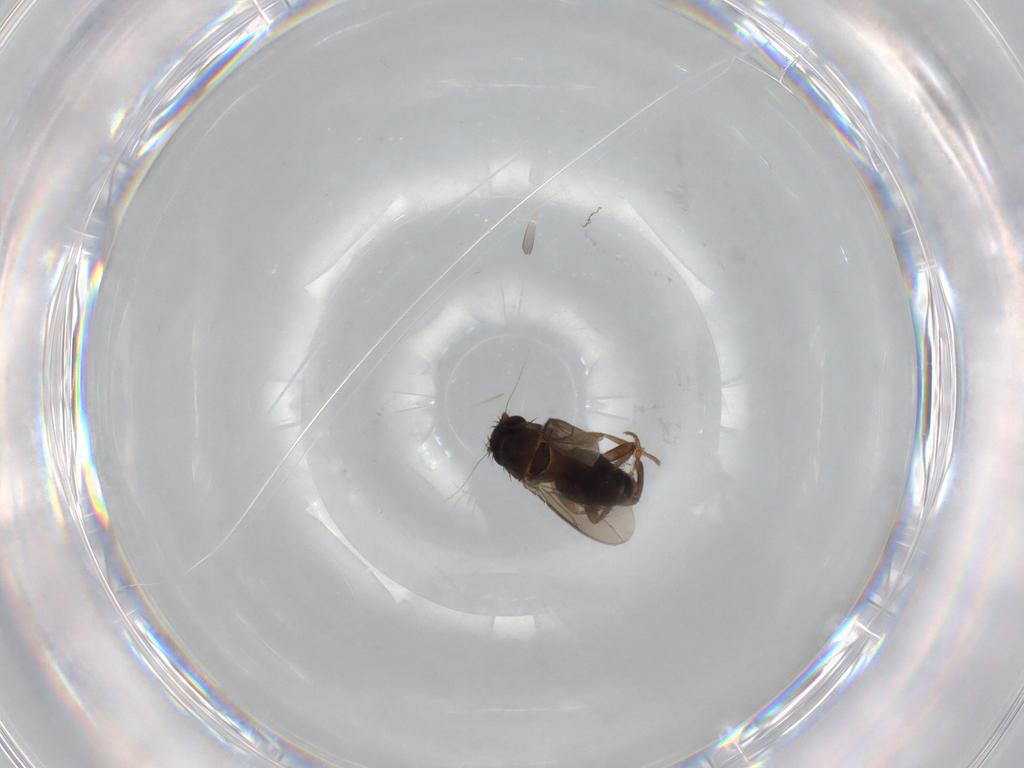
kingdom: Animalia
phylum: Arthropoda
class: Insecta
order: Diptera
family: Sphaeroceridae
